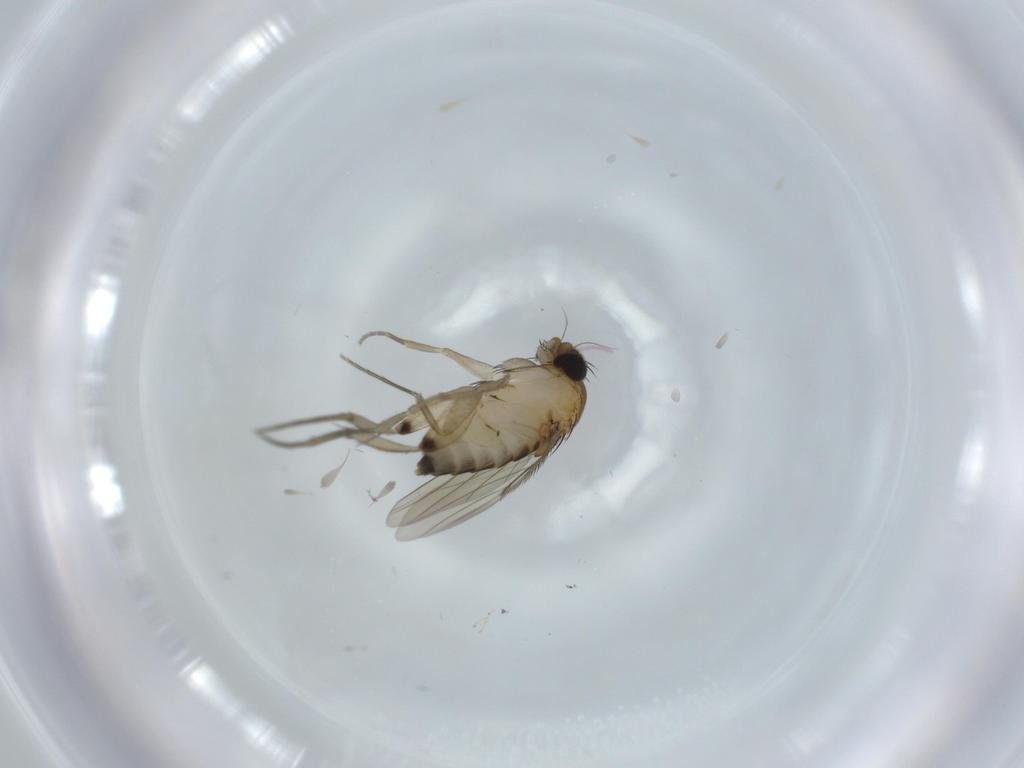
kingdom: Animalia
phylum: Arthropoda
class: Insecta
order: Diptera
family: Phoridae
